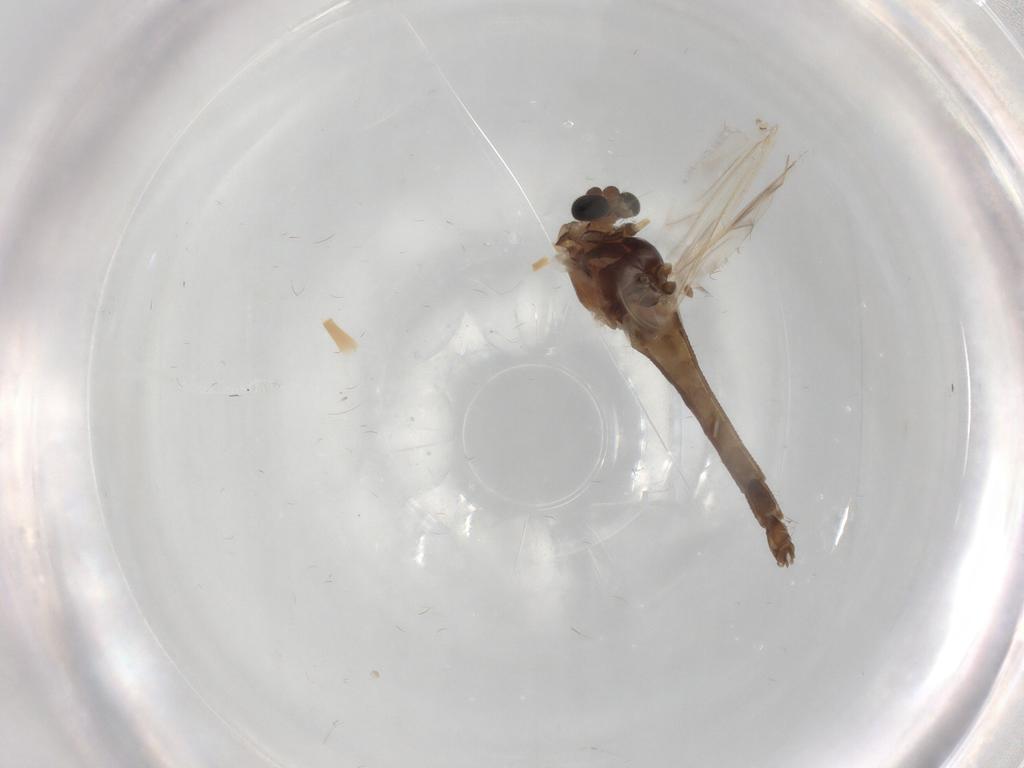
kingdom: Animalia
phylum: Arthropoda
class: Insecta
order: Diptera
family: Chironomidae
